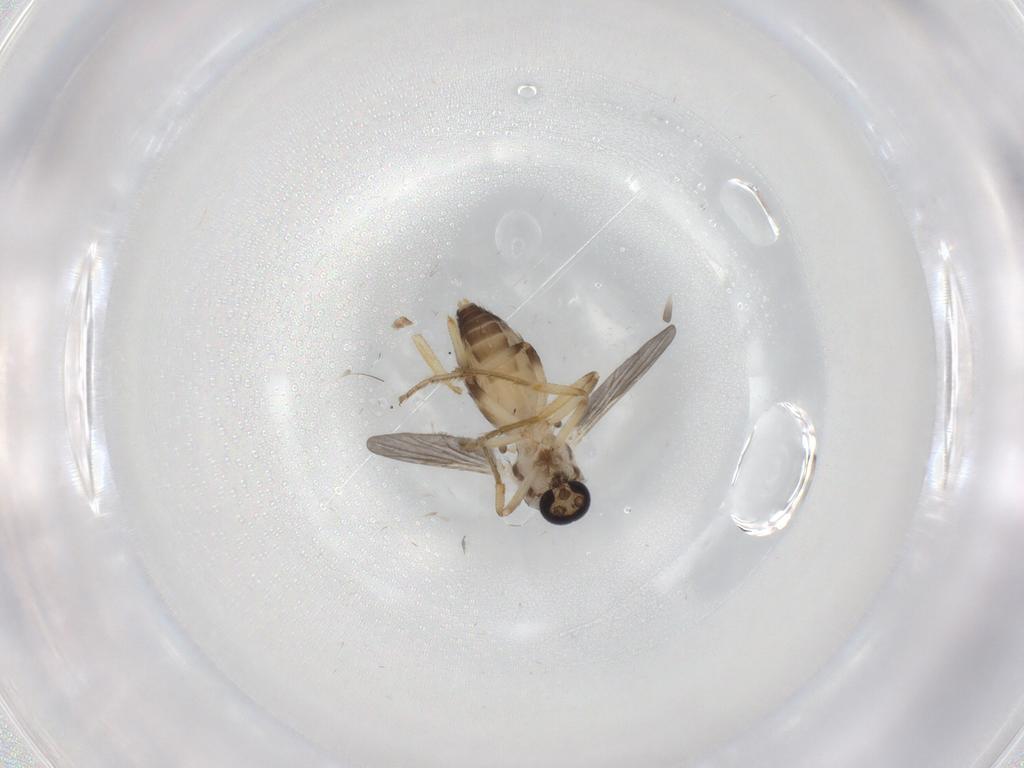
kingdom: Animalia
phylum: Arthropoda
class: Insecta
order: Diptera
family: Ceratopogonidae
